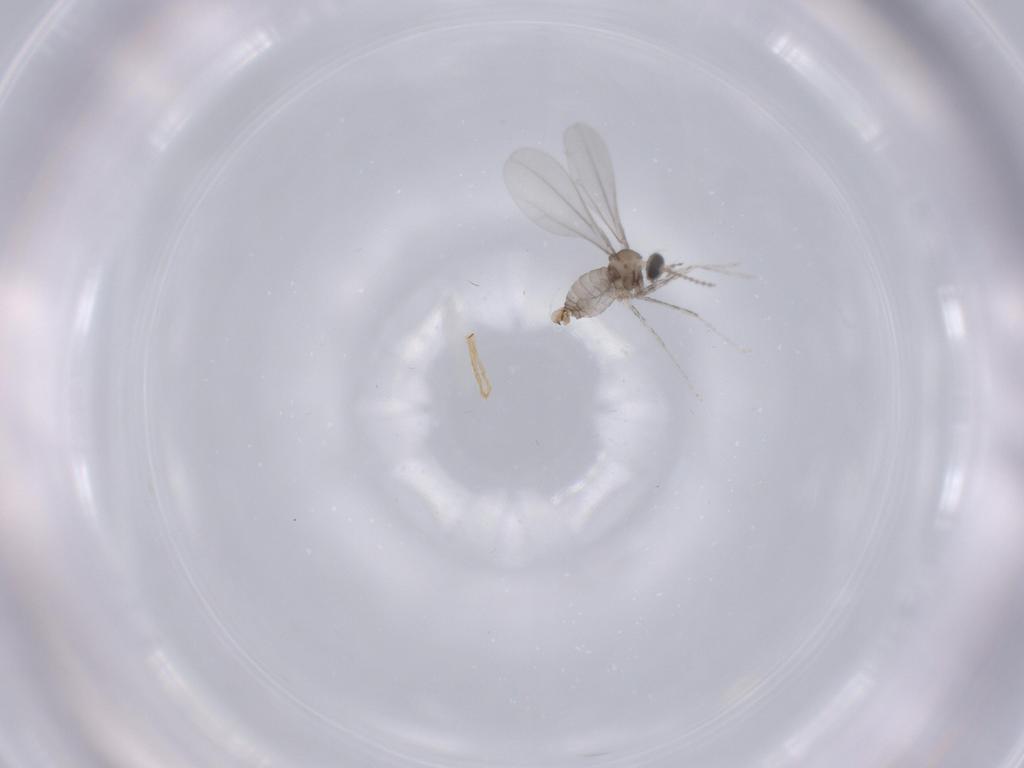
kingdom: Animalia
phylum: Arthropoda
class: Insecta
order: Diptera
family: Cecidomyiidae
